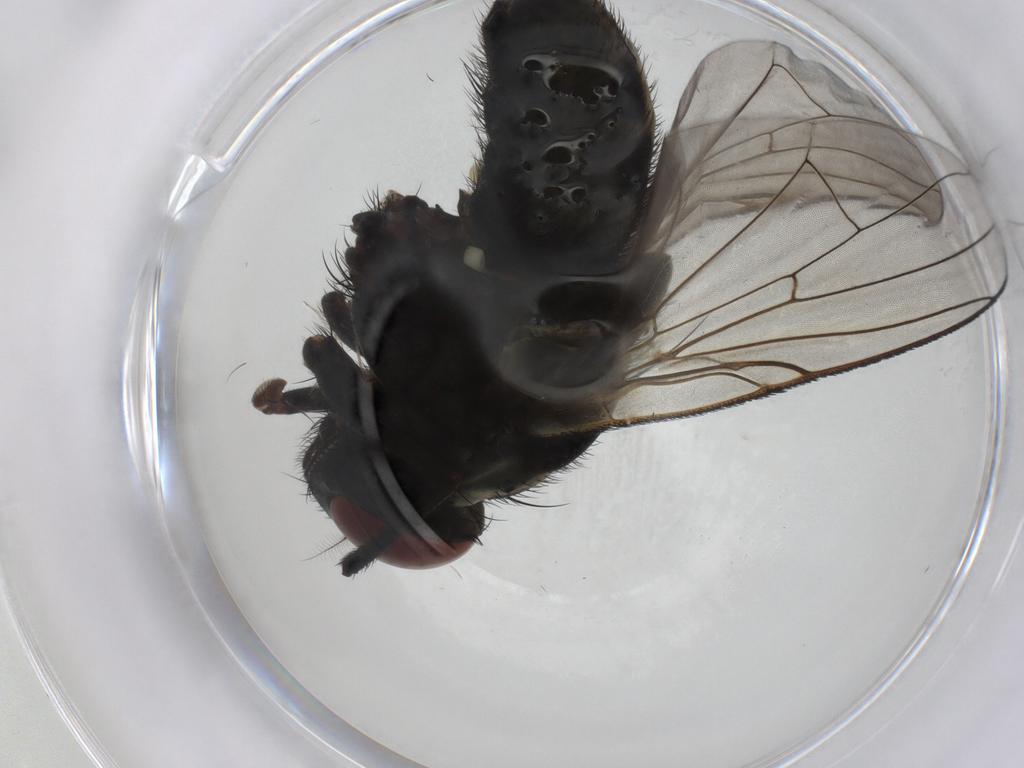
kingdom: Animalia
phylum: Arthropoda
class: Insecta
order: Diptera
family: Muscidae
